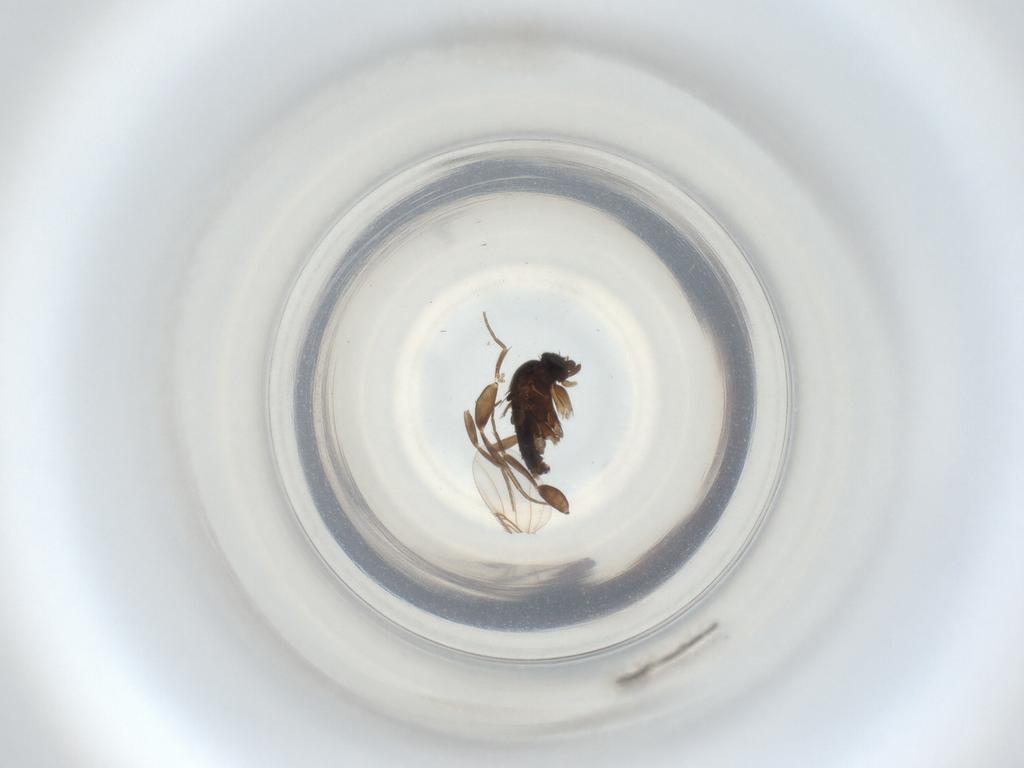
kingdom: Animalia
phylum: Arthropoda
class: Insecta
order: Diptera
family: Phoridae
